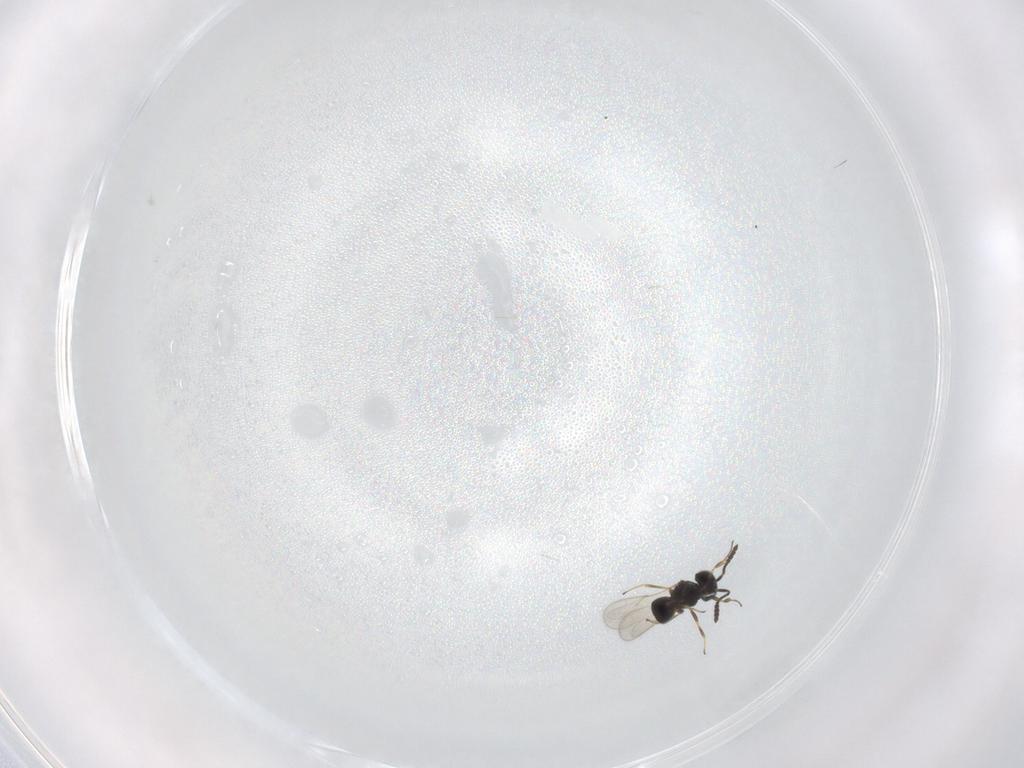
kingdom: Animalia
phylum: Arthropoda
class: Insecta
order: Hymenoptera
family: Scelionidae
